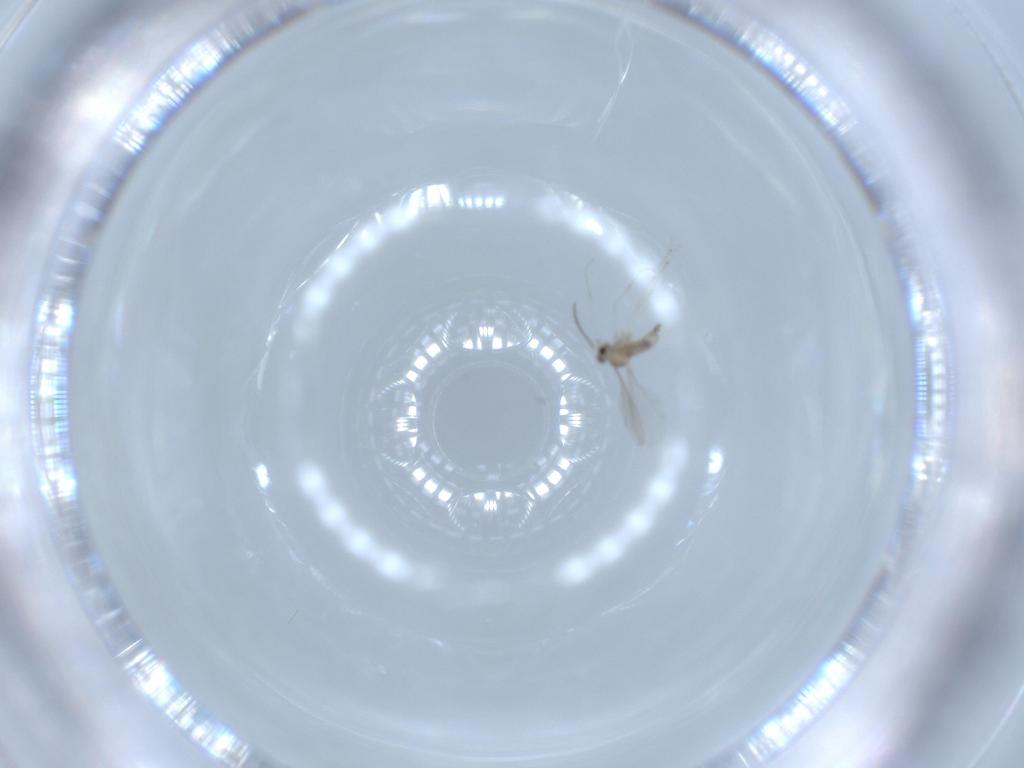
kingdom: Animalia
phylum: Arthropoda
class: Insecta
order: Diptera
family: Cecidomyiidae
